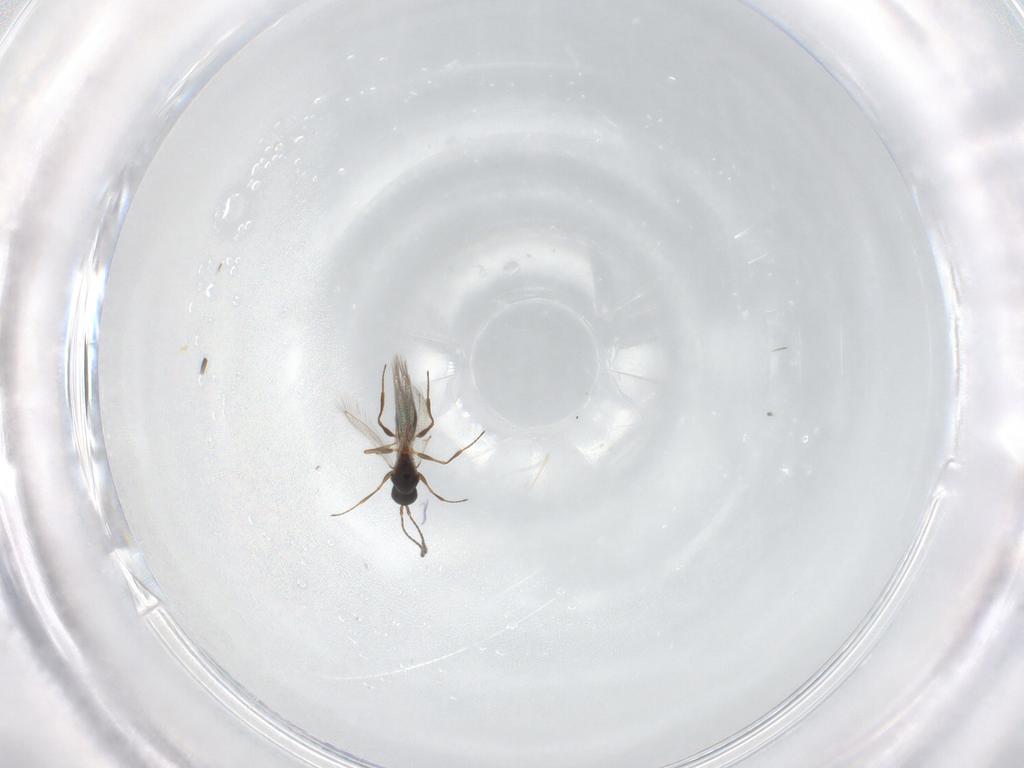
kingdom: Animalia
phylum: Arthropoda
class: Insecta
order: Hymenoptera
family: Figitidae
